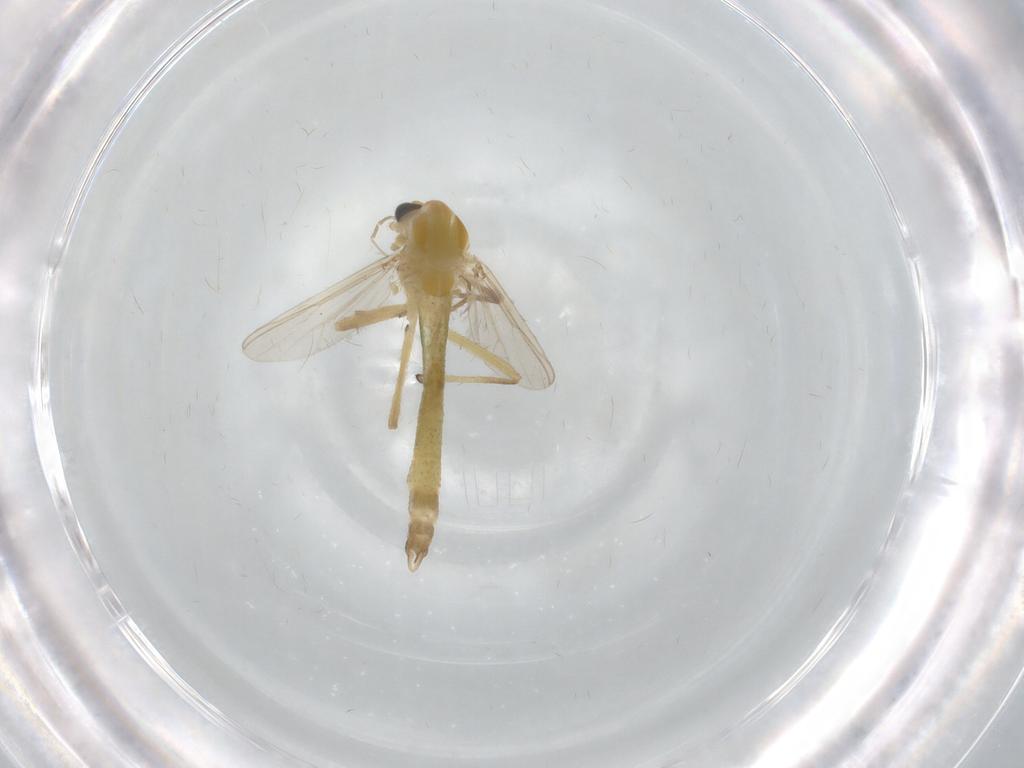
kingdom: Animalia
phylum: Arthropoda
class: Insecta
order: Diptera
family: Chironomidae
